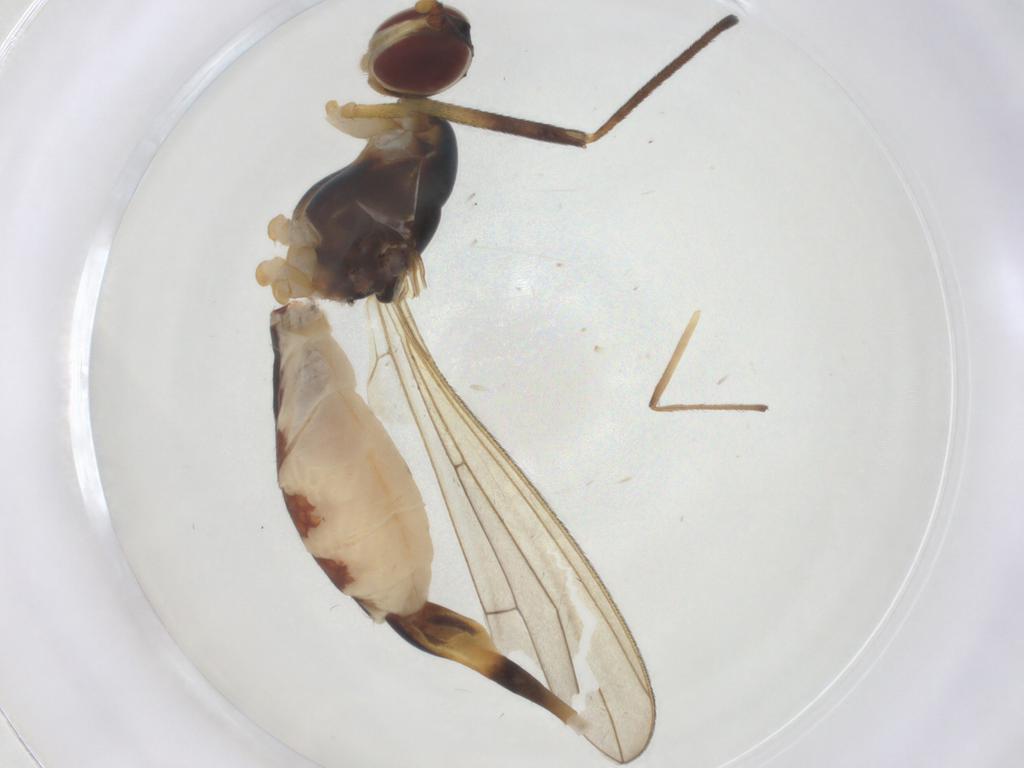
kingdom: Animalia
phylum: Arthropoda
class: Insecta
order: Diptera
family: Micropezidae
